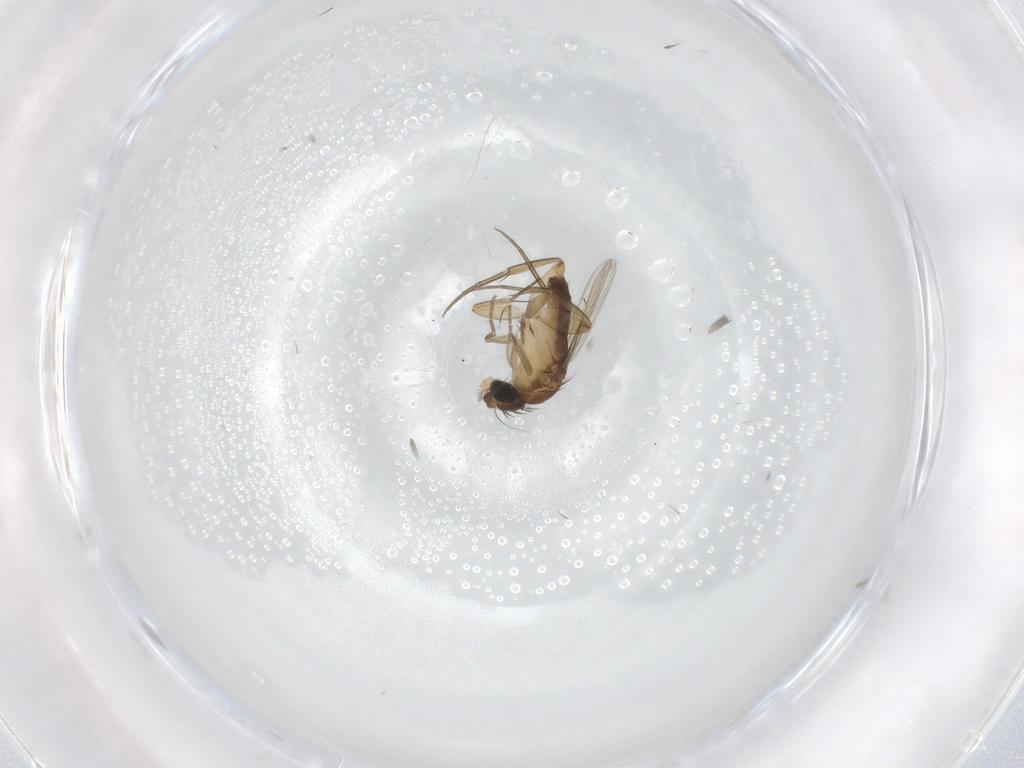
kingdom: Animalia
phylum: Arthropoda
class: Insecta
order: Diptera
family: Phoridae
